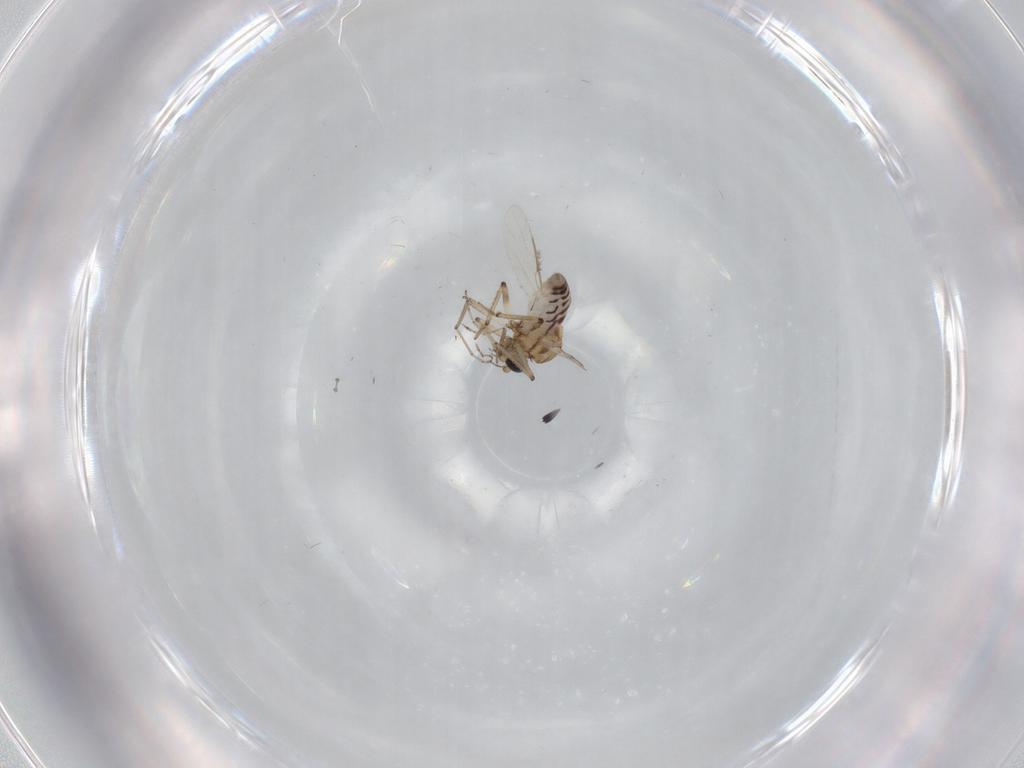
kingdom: Animalia
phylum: Arthropoda
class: Insecta
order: Diptera
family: Ceratopogonidae
